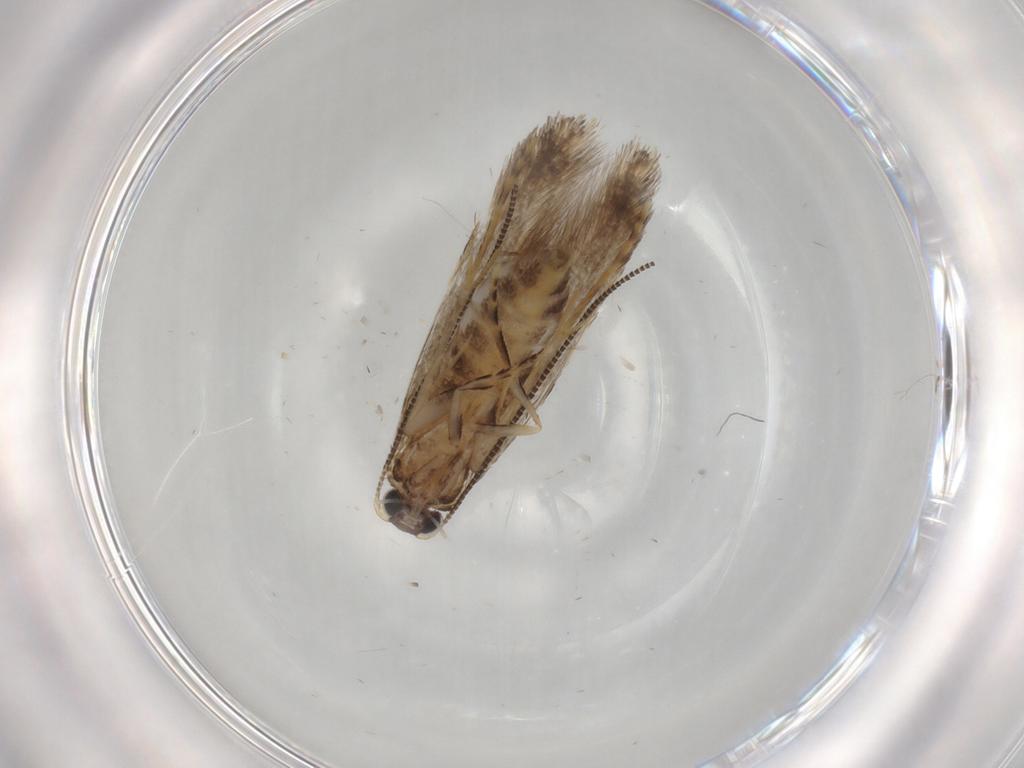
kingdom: Animalia
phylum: Arthropoda
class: Insecta
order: Lepidoptera
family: Tineidae
